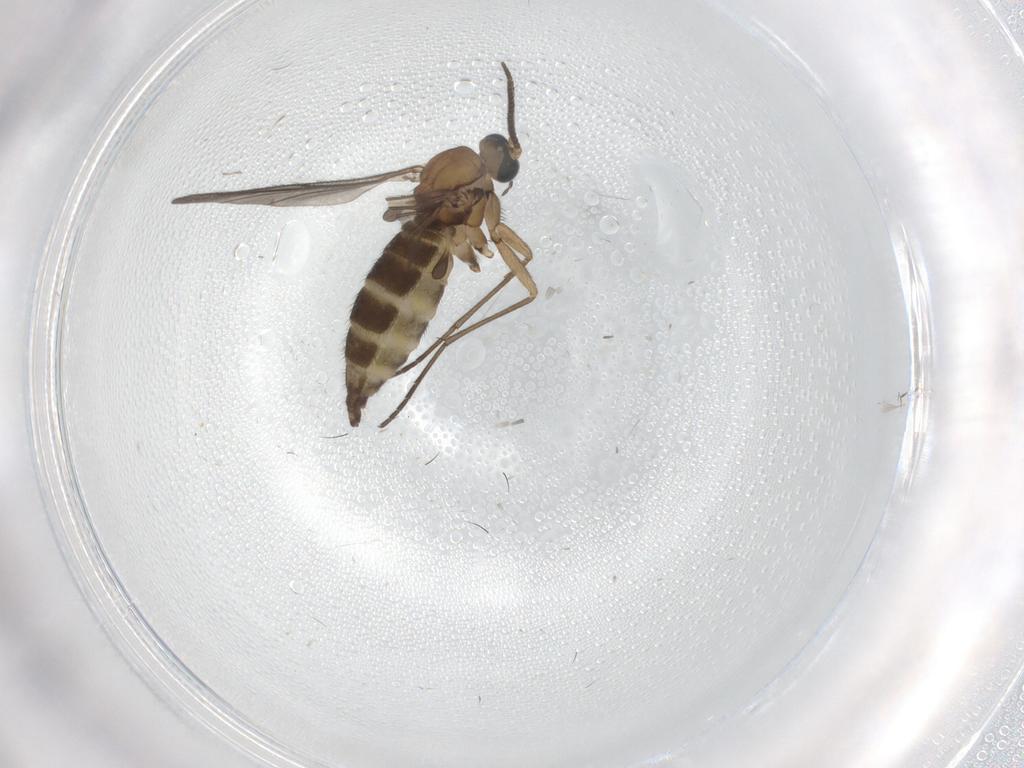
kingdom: Animalia
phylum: Arthropoda
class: Insecta
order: Diptera
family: Sciaridae
